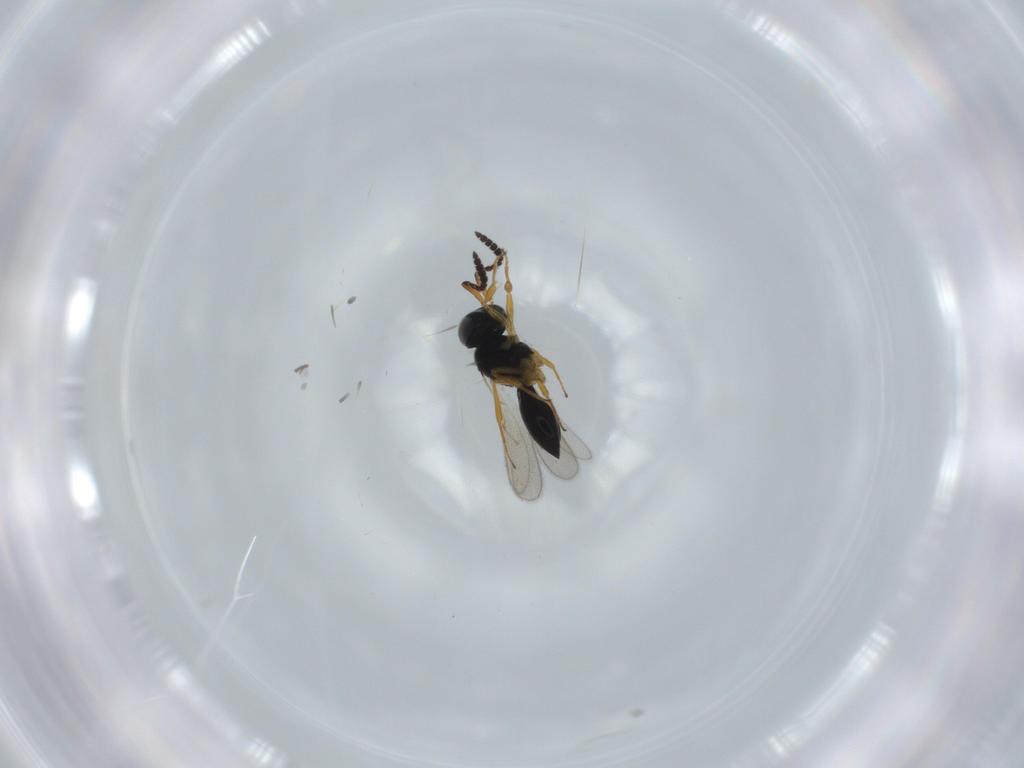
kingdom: Animalia
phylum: Arthropoda
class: Insecta
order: Hymenoptera
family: Scelionidae
